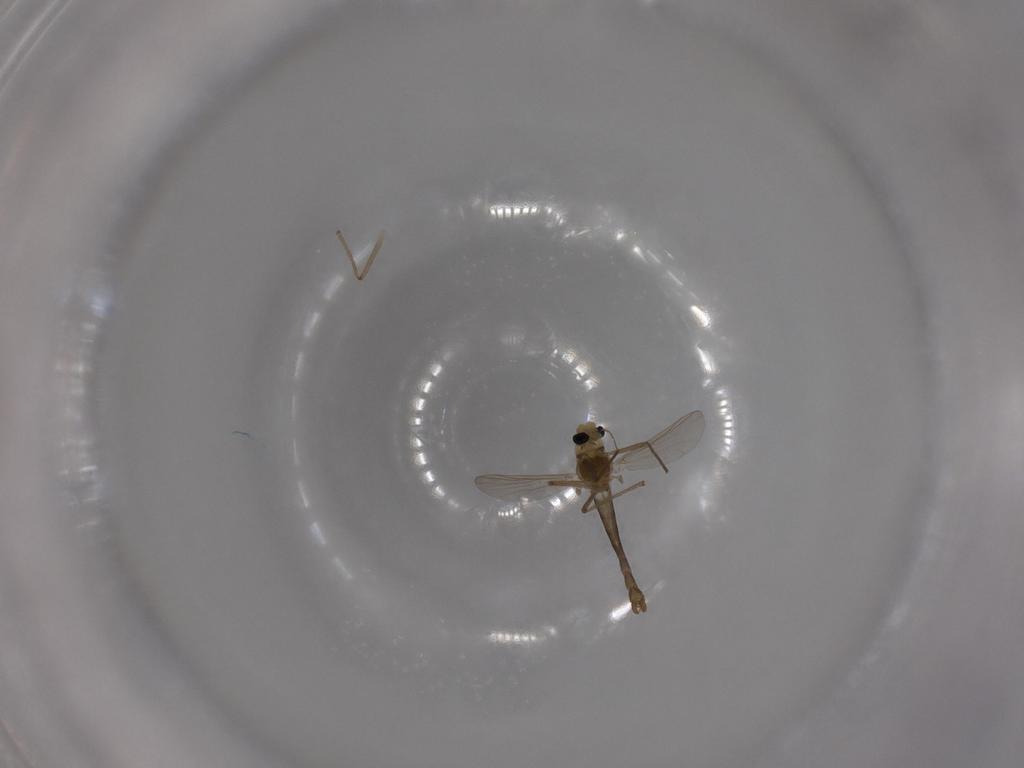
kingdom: Animalia
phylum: Arthropoda
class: Insecta
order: Diptera
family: Chironomidae
